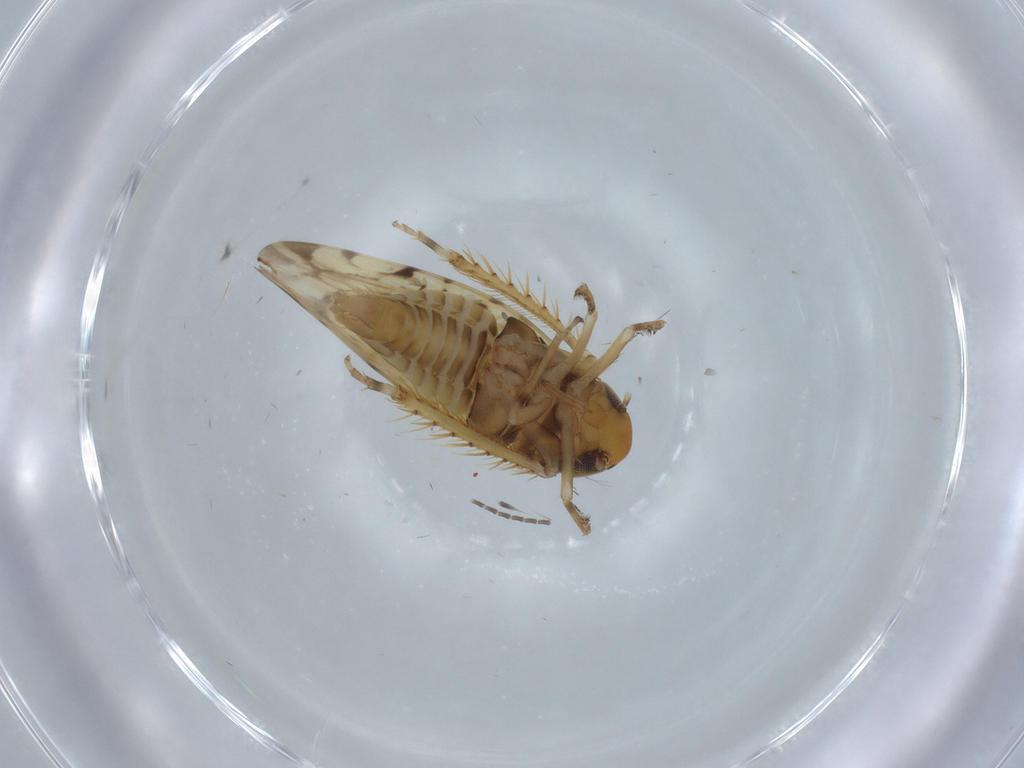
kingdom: Animalia
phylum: Arthropoda
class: Insecta
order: Hemiptera
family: Cicadellidae
